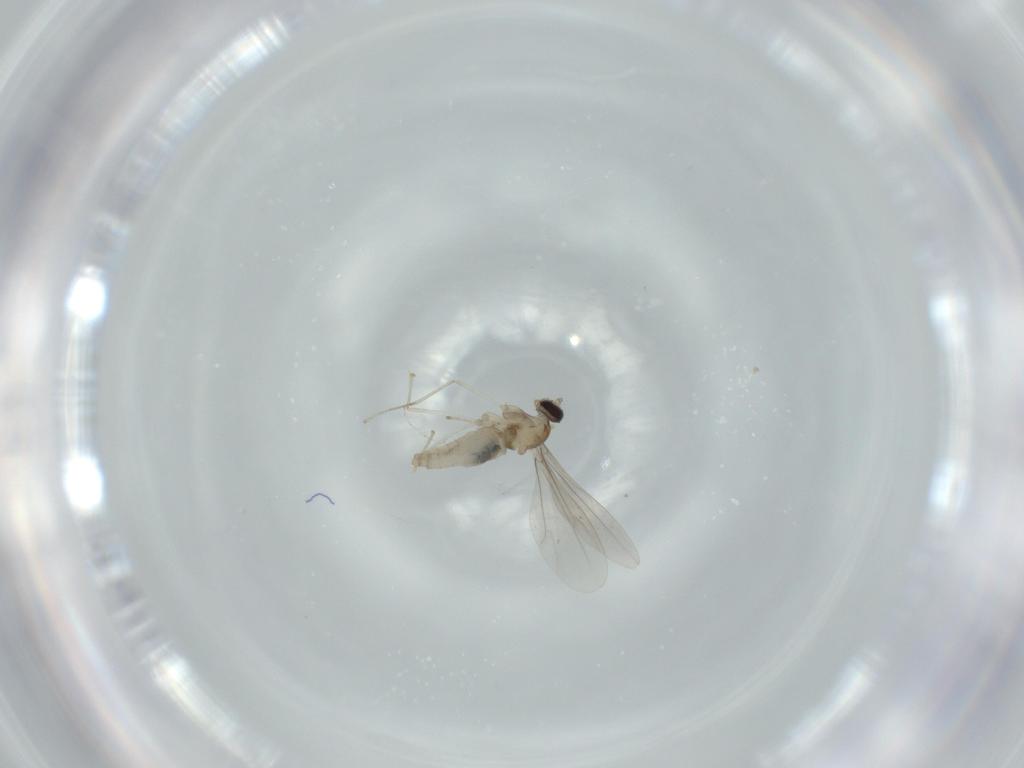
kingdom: Animalia
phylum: Arthropoda
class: Insecta
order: Diptera
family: Cecidomyiidae
